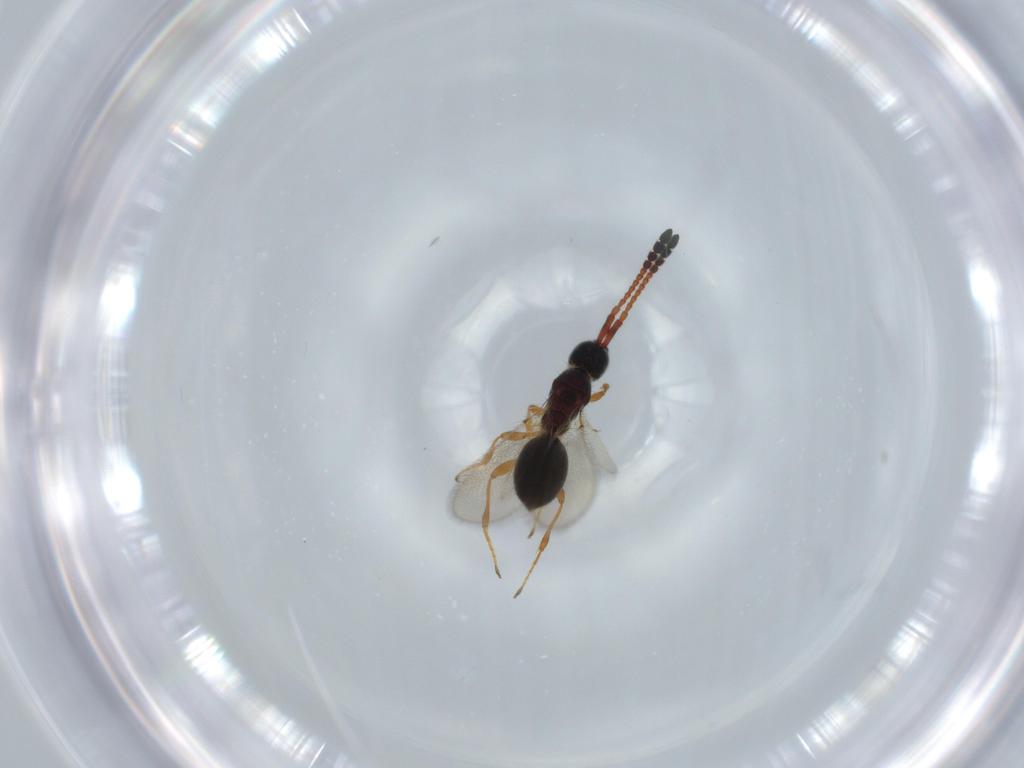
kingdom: Animalia
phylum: Arthropoda
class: Insecta
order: Hymenoptera
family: Diapriidae
